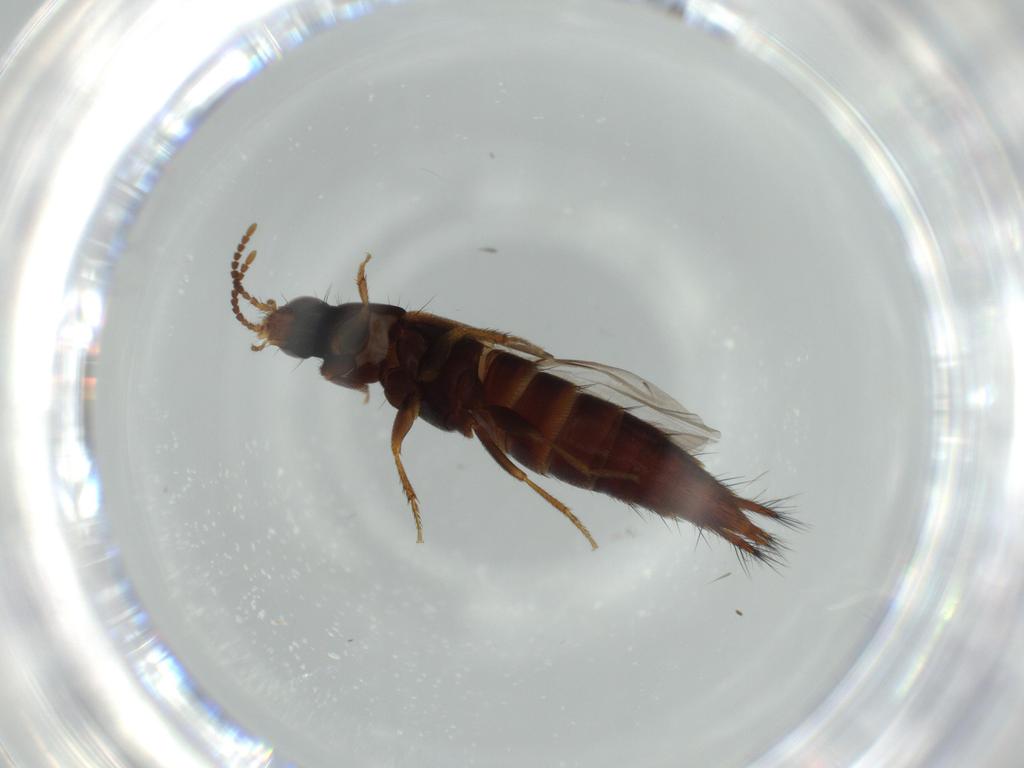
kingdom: Animalia
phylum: Arthropoda
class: Insecta
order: Coleoptera
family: Staphylinidae
